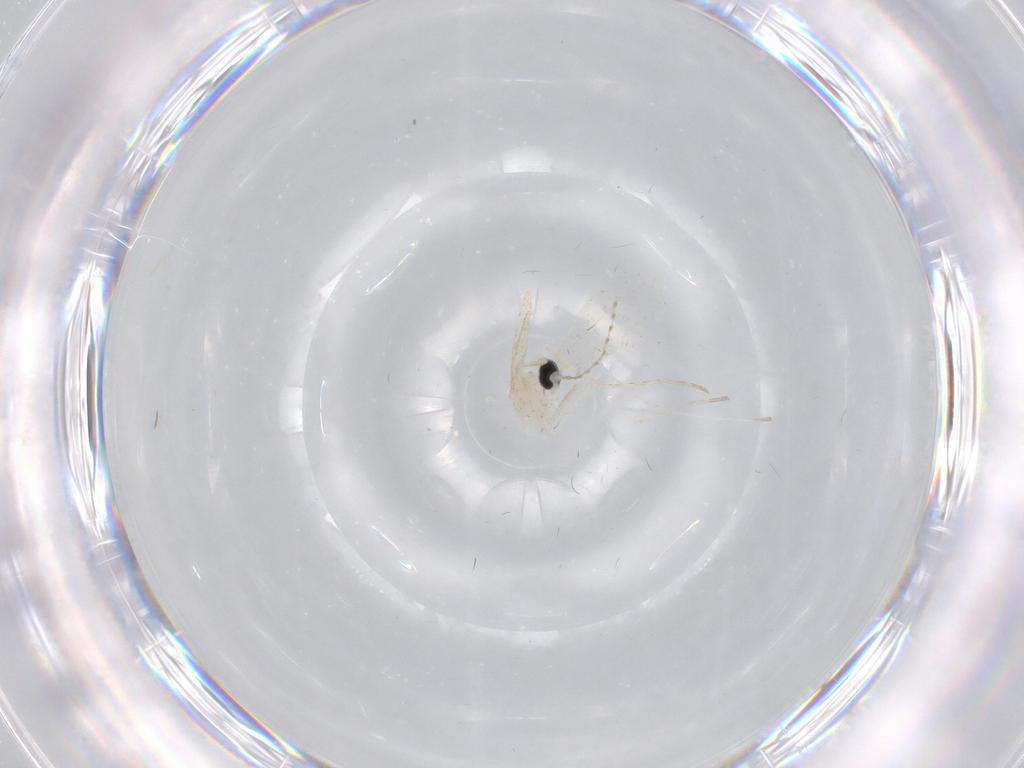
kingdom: Animalia
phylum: Arthropoda
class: Insecta
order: Diptera
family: Cecidomyiidae
